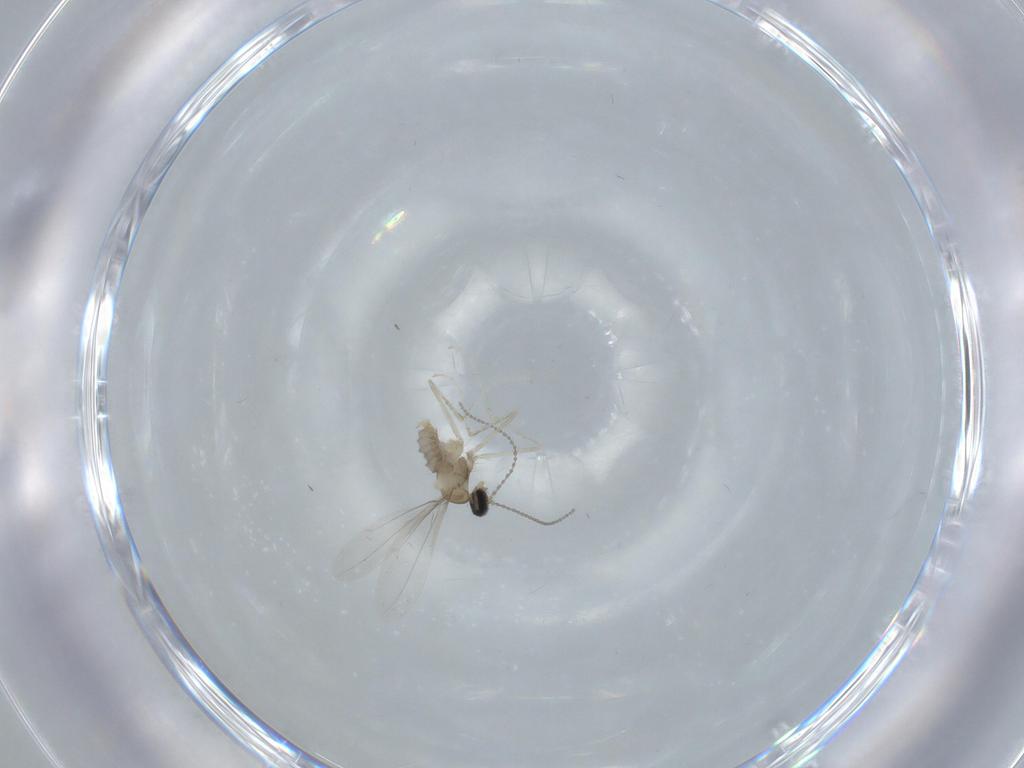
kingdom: Animalia
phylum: Arthropoda
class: Insecta
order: Diptera
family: Cecidomyiidae
